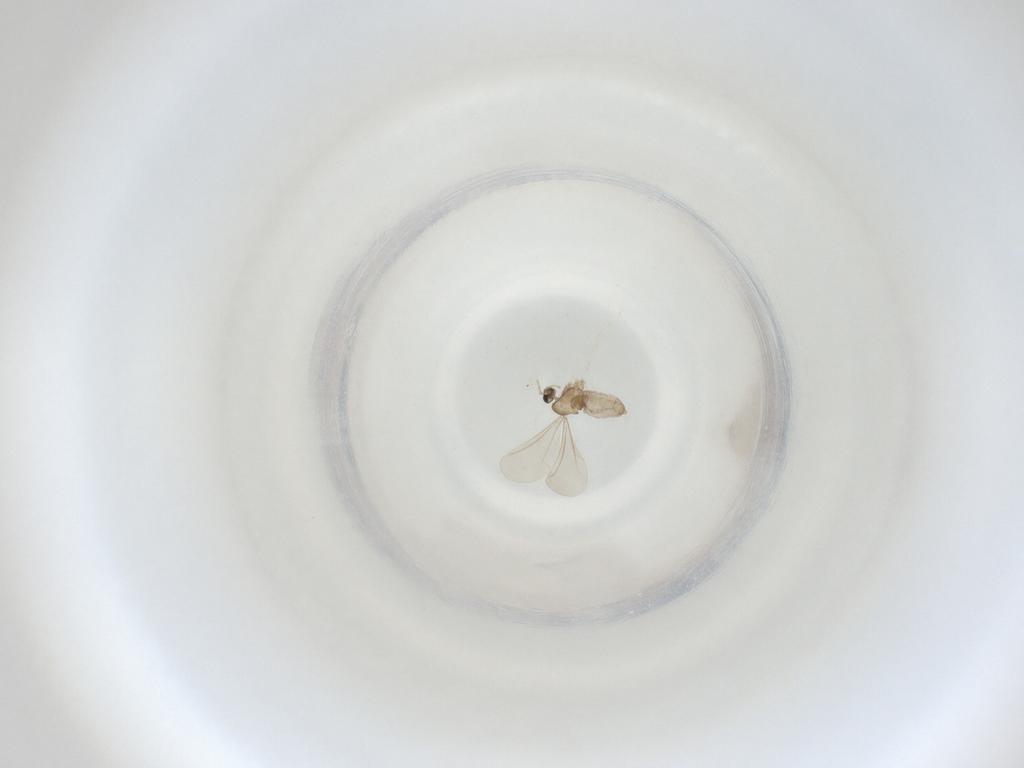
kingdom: Animalia
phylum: Arthropoda
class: Insecta
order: Diptera
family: Cecidomyiidae
